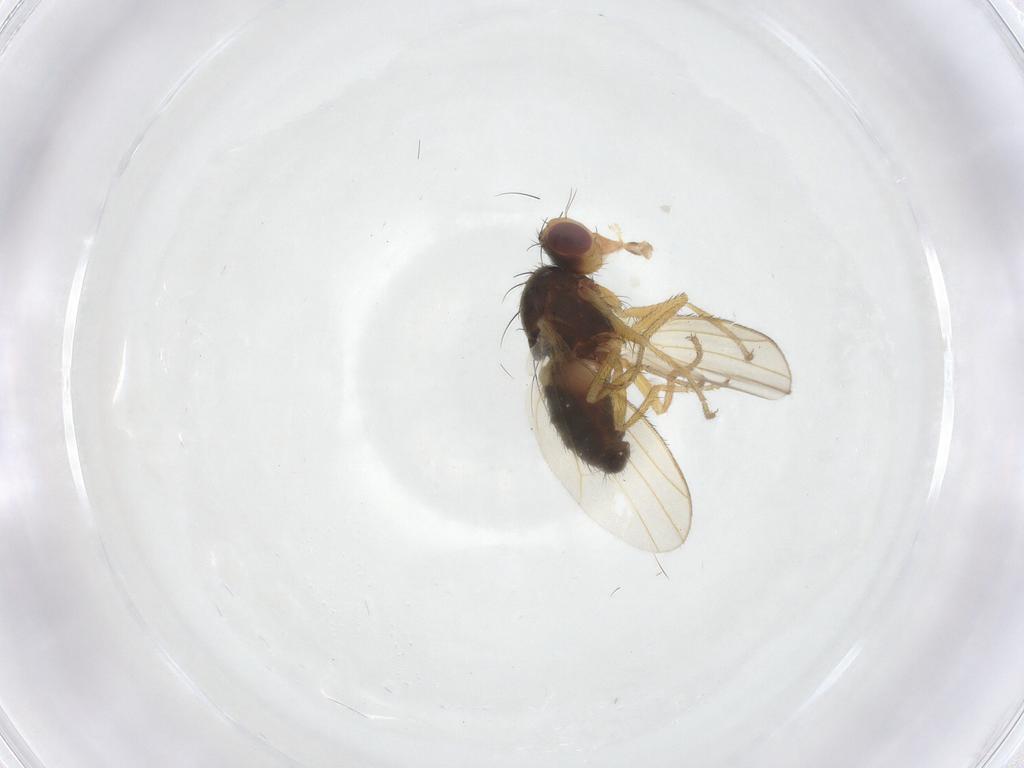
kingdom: Animalia
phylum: Arthropoda
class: Insecta
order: Diptera
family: Heleomyzidae
